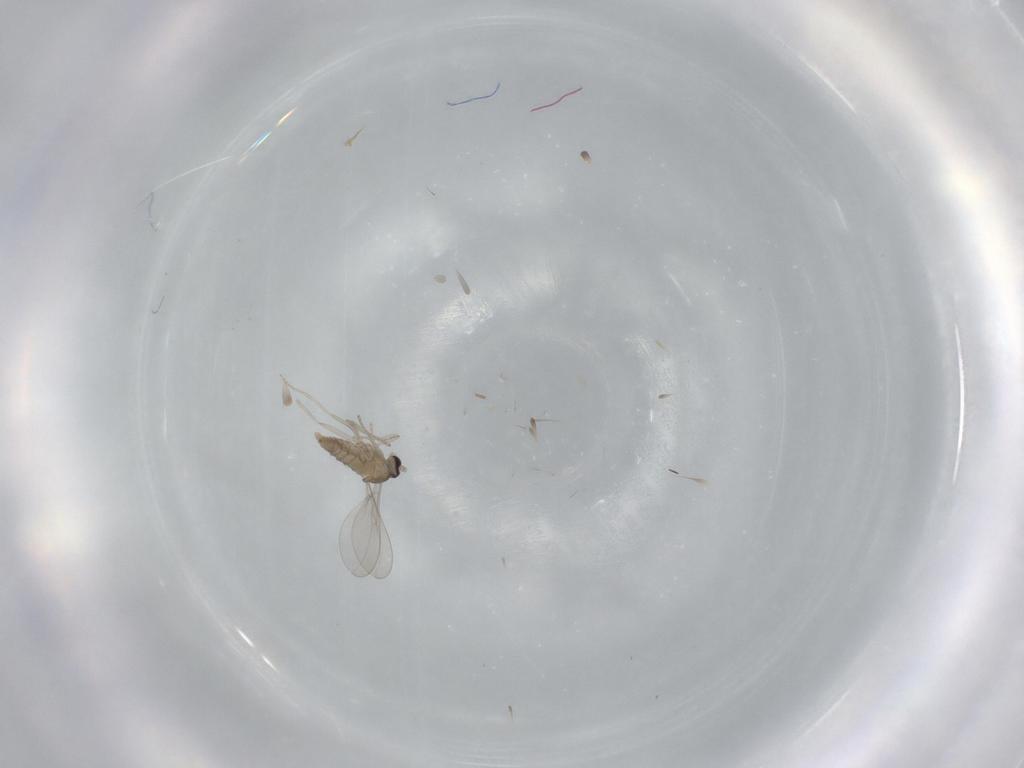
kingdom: Animalia
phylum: Arthropoda
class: Insecta
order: Diptera
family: Cecidomyiidae
